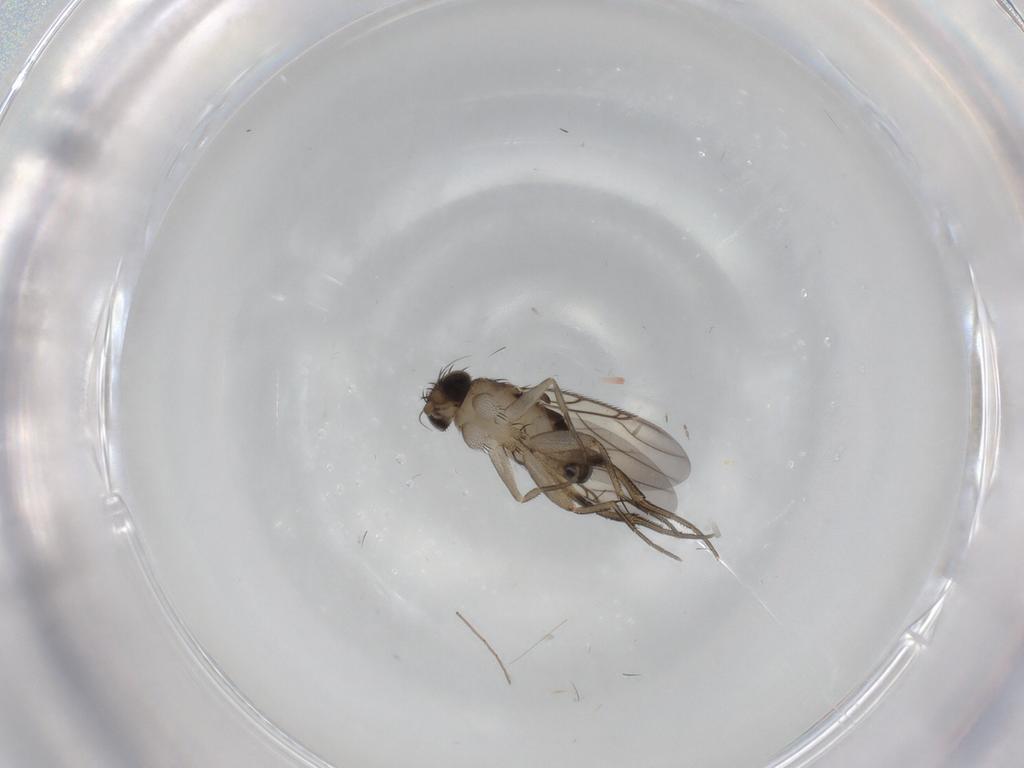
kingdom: Animalia
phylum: Arthropoda
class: Insecta
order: Diptera
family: Phoridae
